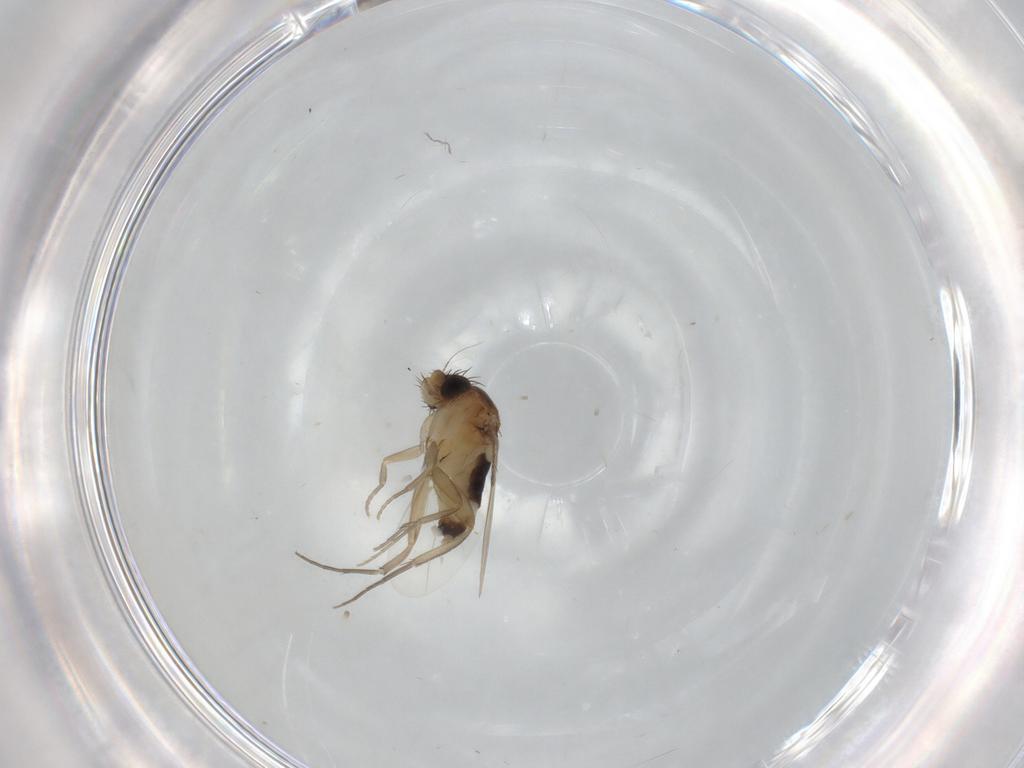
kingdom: Animalia
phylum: Arthropoda
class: Insecta
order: Diptera
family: Phoridae
